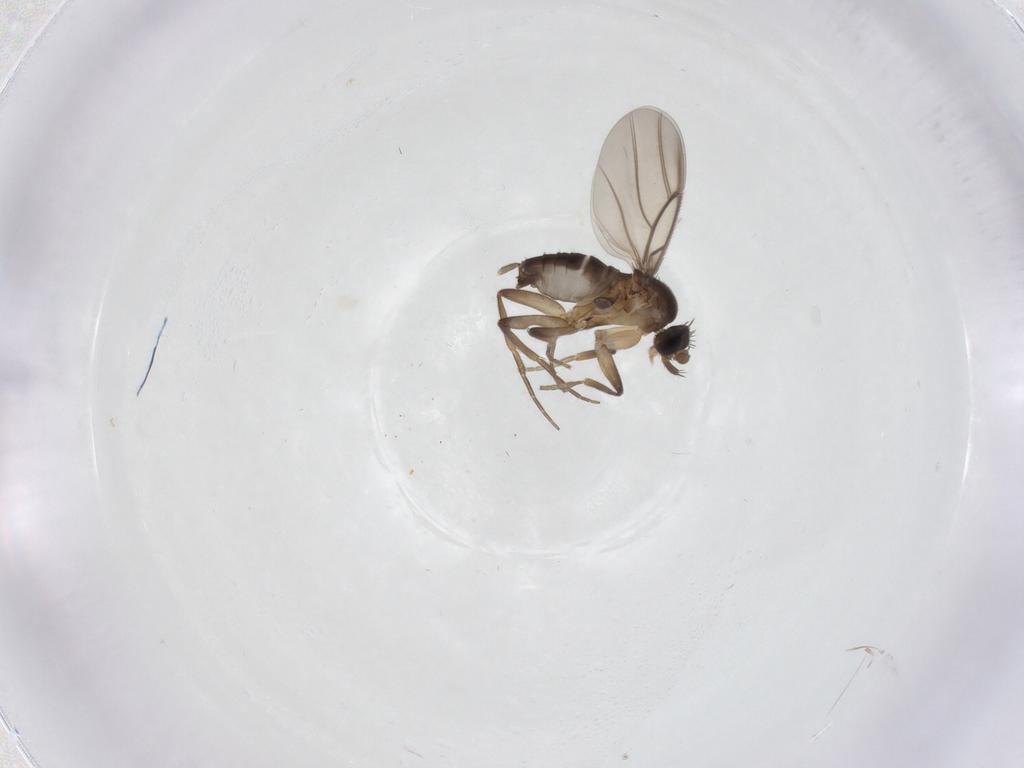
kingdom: Animalia
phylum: Arthropoda
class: Insecta
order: Diptera
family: Phoridae
